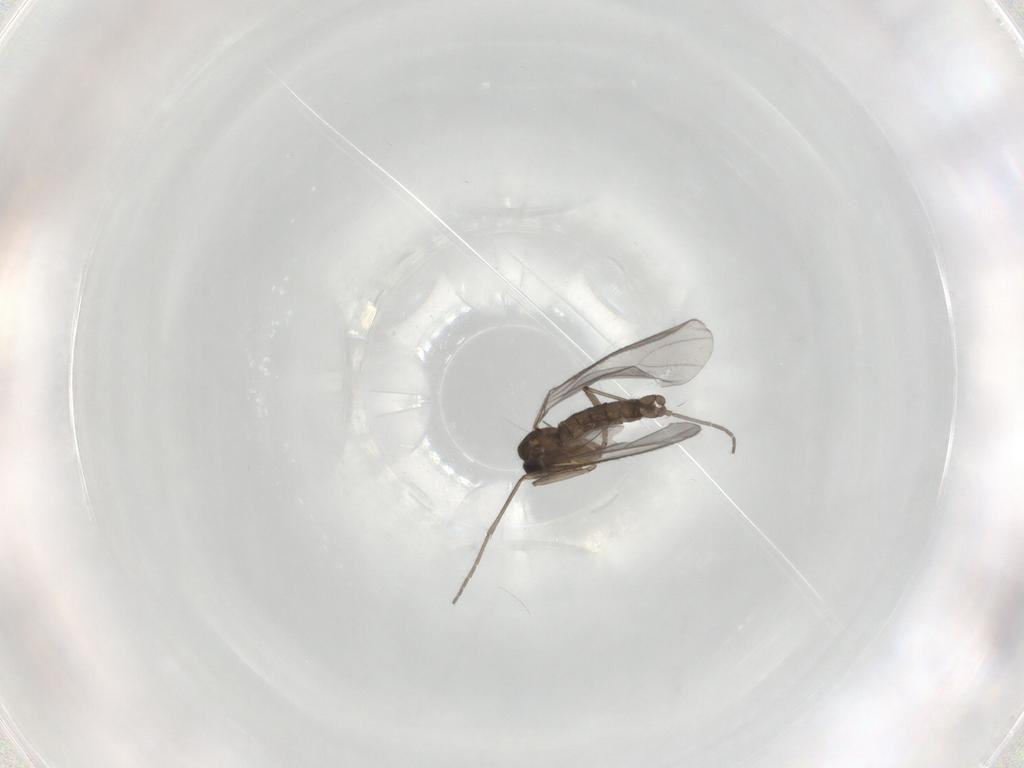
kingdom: Animalia
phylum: Arthropoda
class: Insecta
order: Diptera
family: Sciaridae
